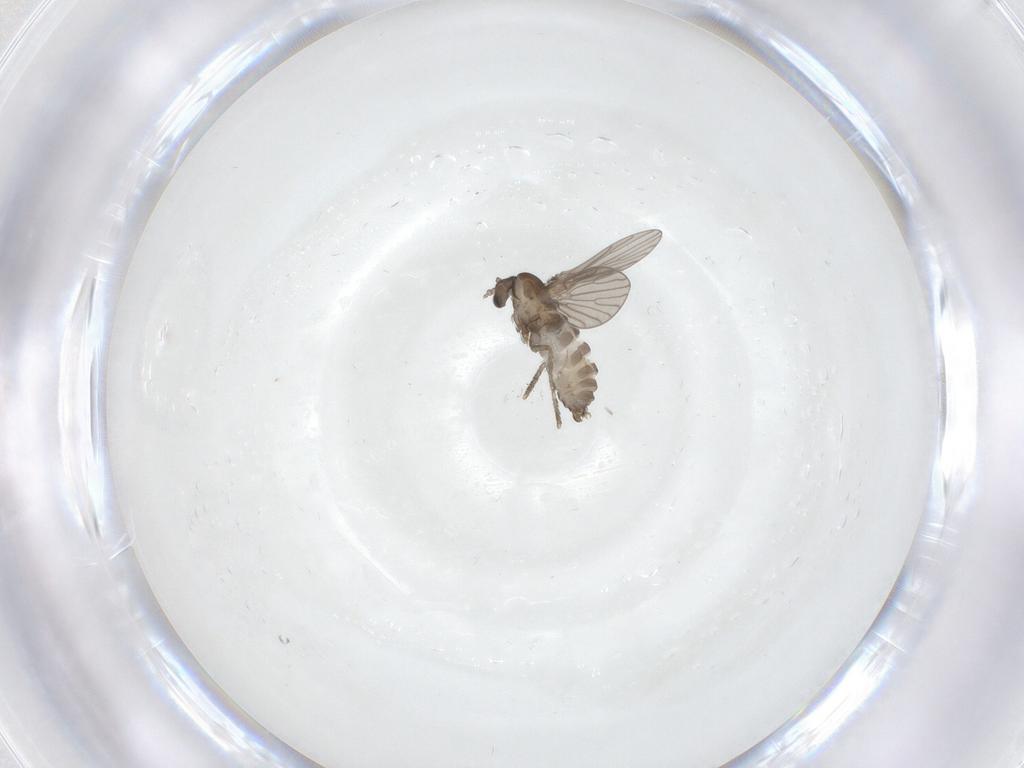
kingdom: Animalia
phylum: Arthropoda
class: Insecta
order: Diptera
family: Psychodidae
